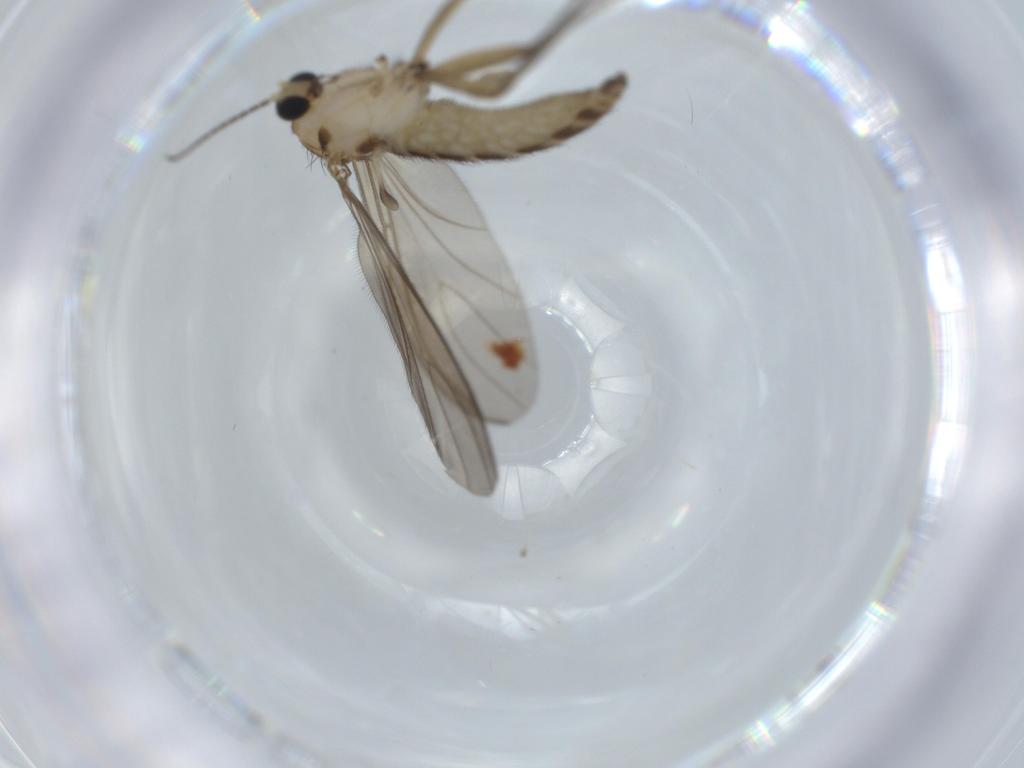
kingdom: Animalia
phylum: Arthropoda
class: Insecta
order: Diptera
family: Sciaridae
